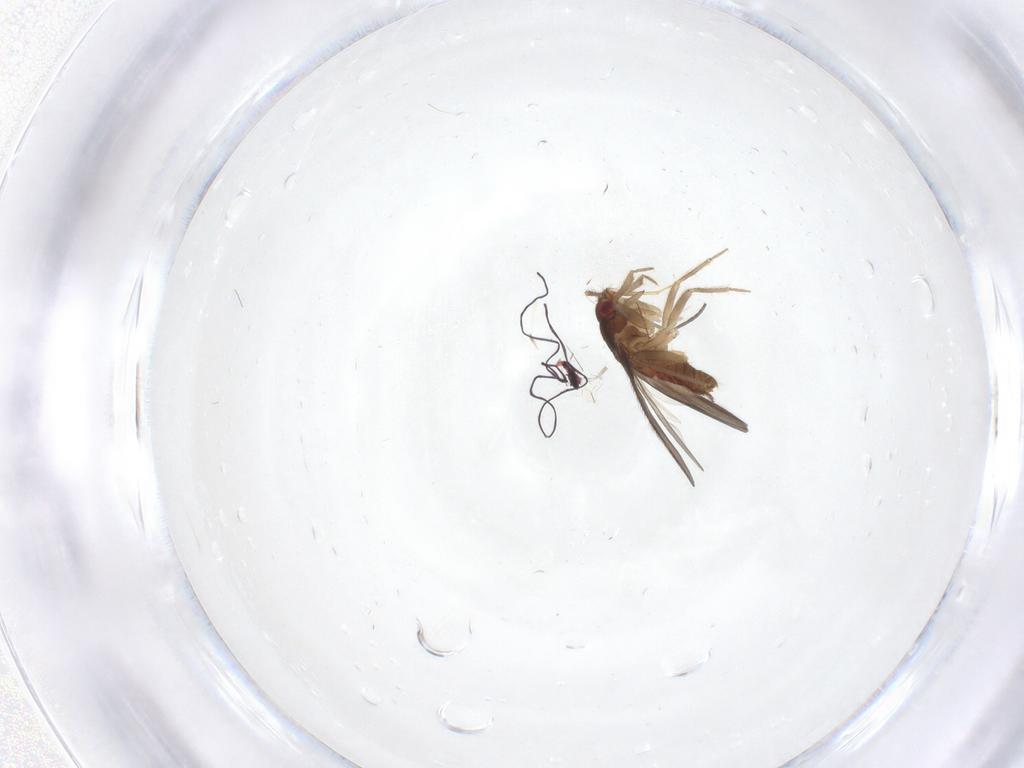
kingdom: Animalia
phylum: Arthropoda
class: Insecta
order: Hemiptera
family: Ceratocombidae
